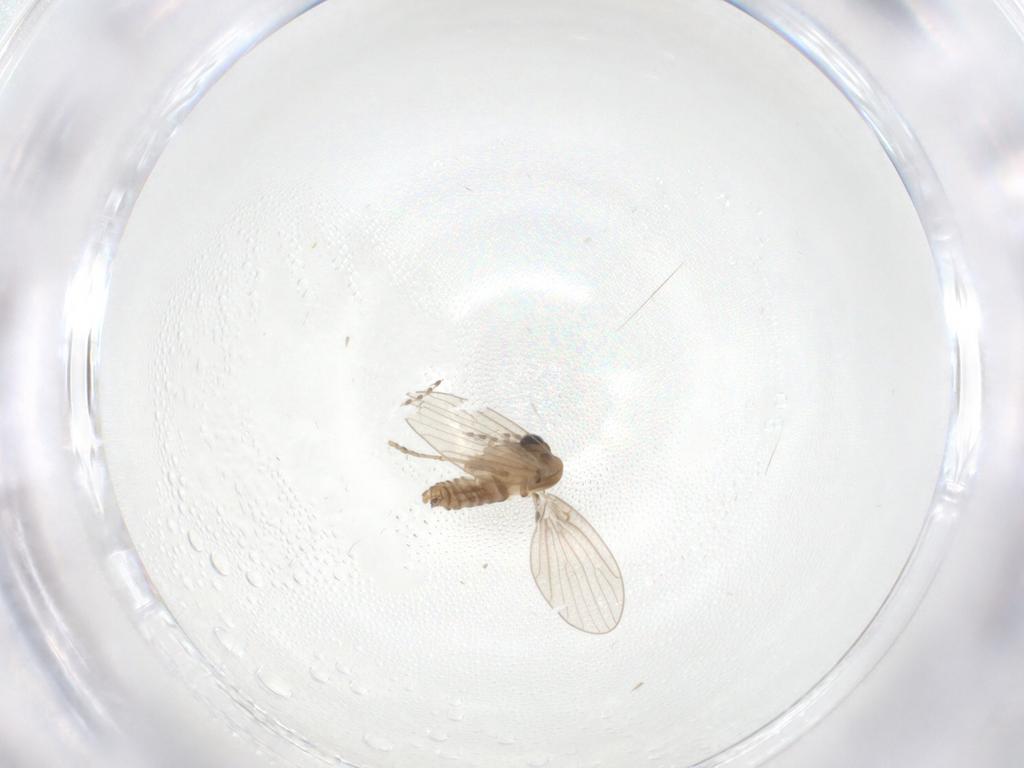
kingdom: Animalia
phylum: Arthropoda
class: Insecta
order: Diptera
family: Psychodidae
